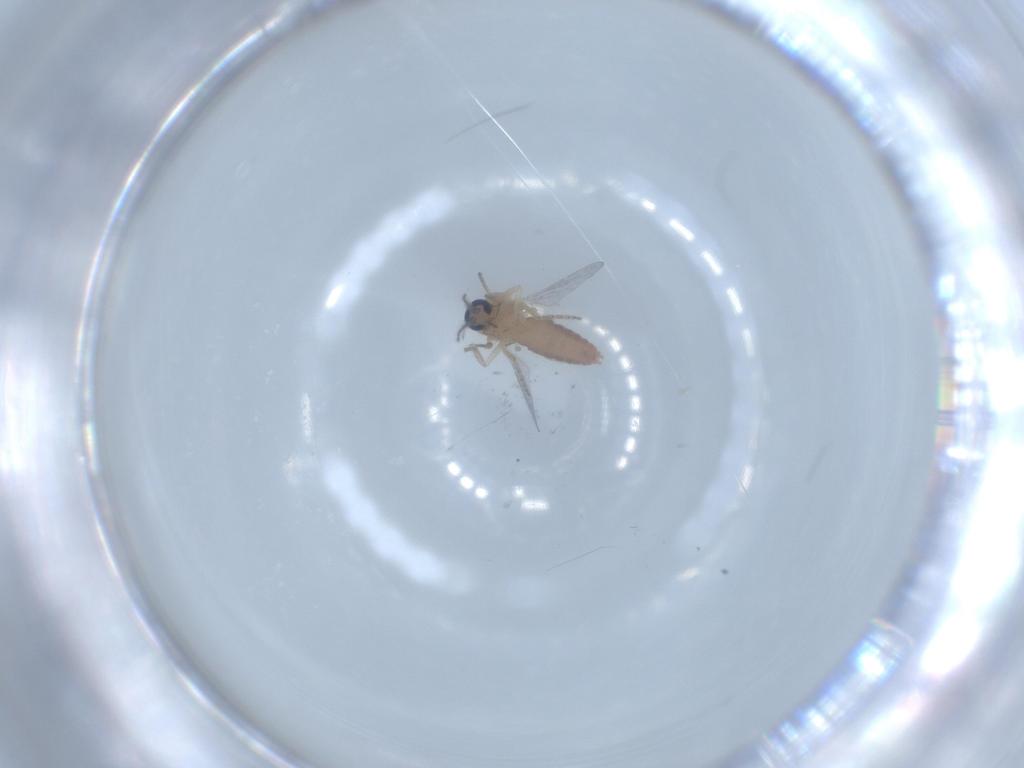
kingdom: Animalia
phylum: Arthropoda
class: Insecta
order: Diptera
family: Ceratopogonidae
